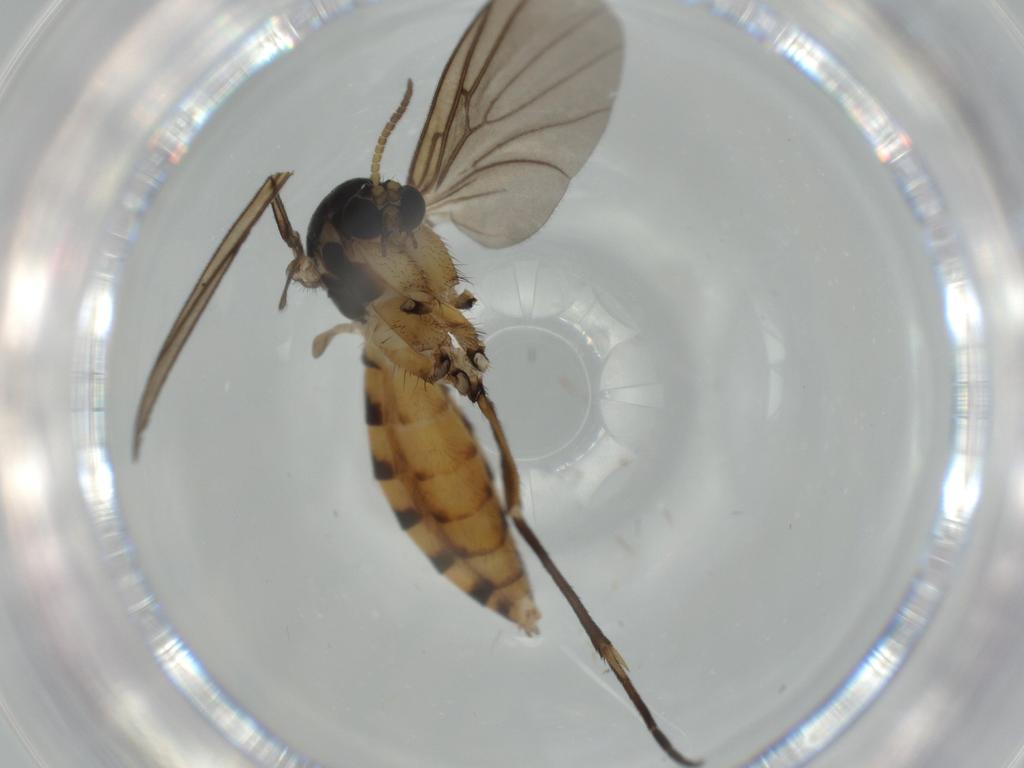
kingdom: Animalia
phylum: Arthropoda
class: Insecta
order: Diptera
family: Mycetophilidae
